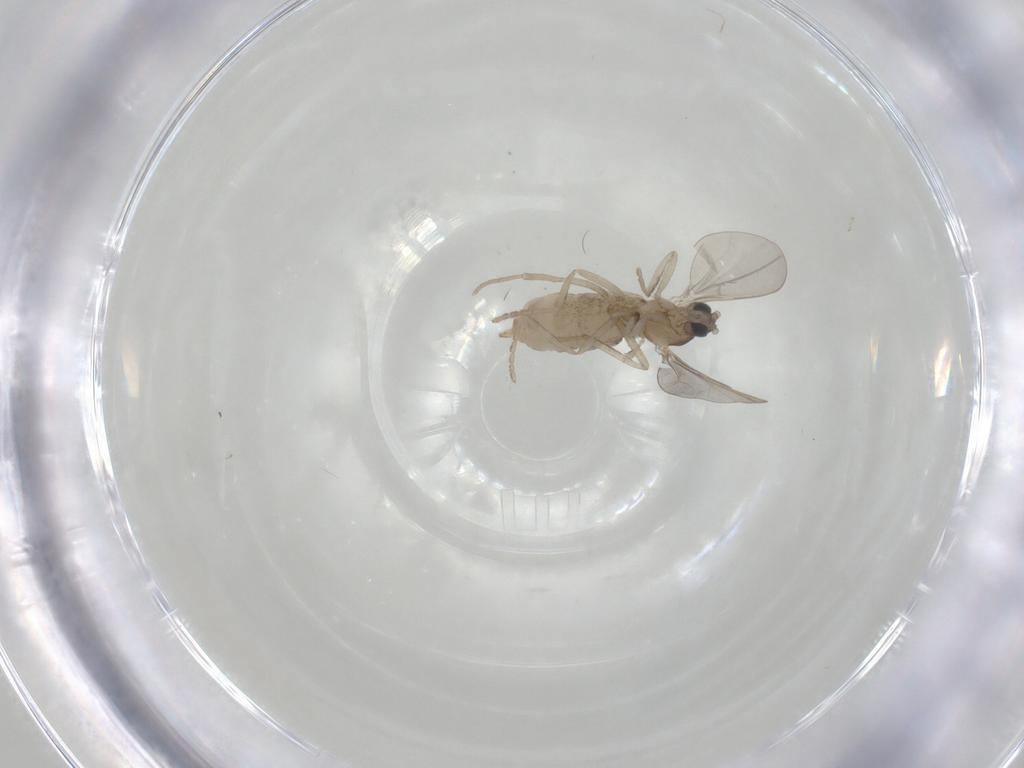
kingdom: Animalia
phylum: Arthropoda
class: Insecta
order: Diptera
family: Cecidomyiidae
